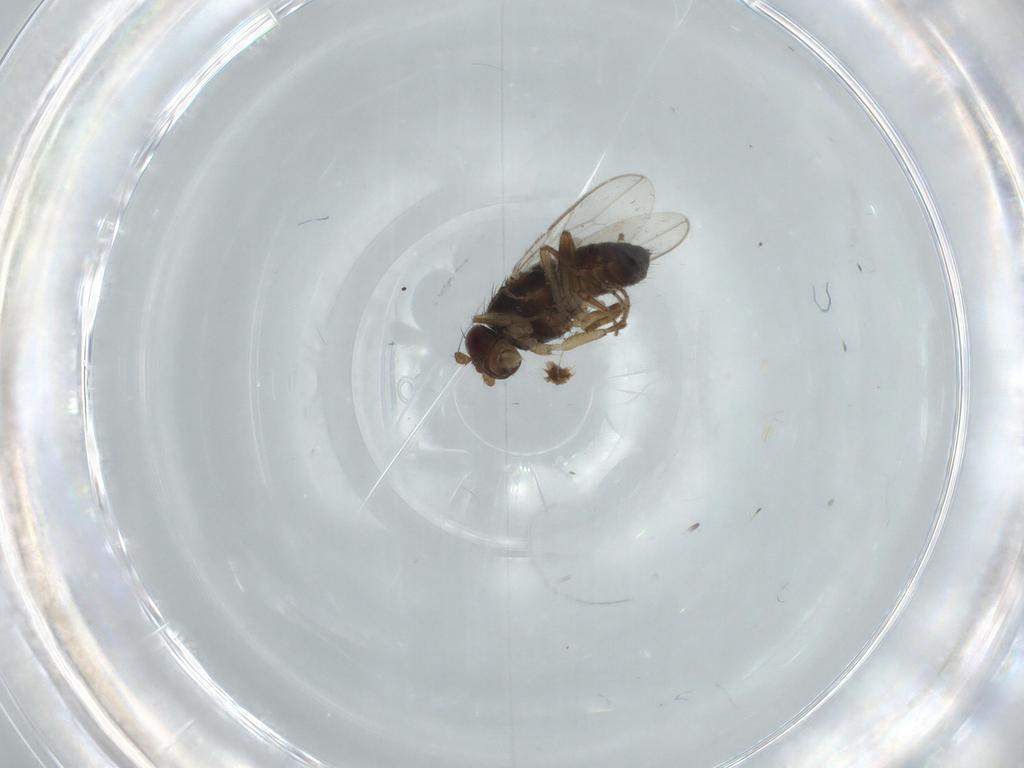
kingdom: Animalia
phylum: Arthropoda
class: Insecta
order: Diptera
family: Sphaeroceridae
